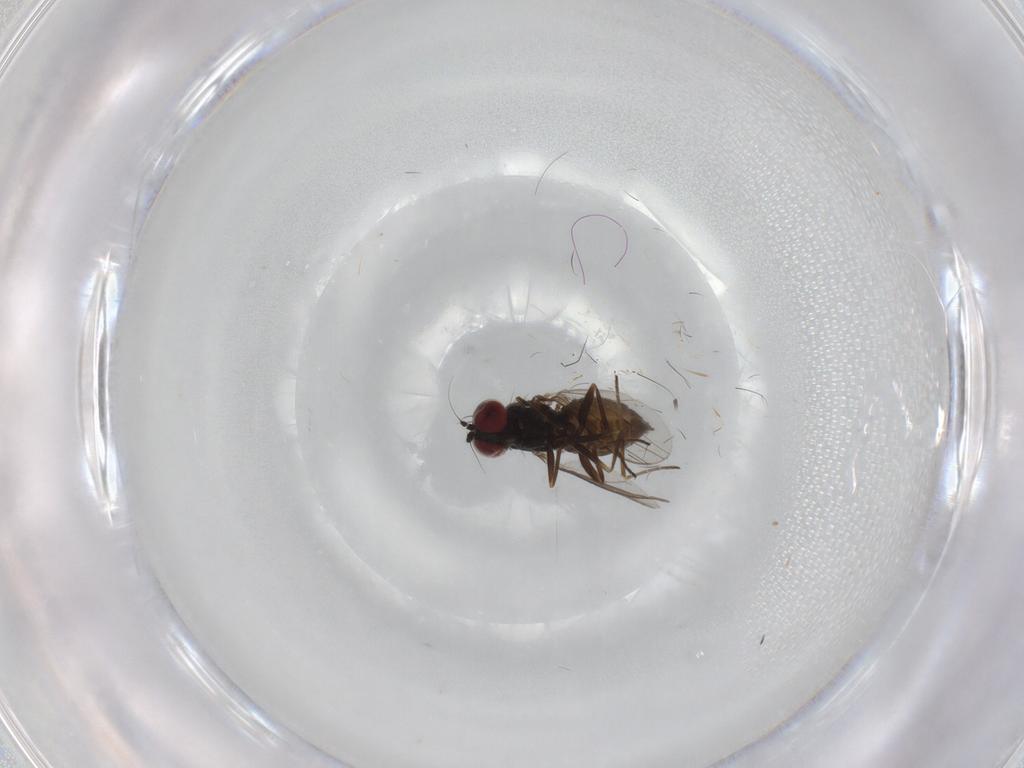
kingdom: Animalia
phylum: Arthropoda
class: Insecta
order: Diptera
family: Dolichopodidae
